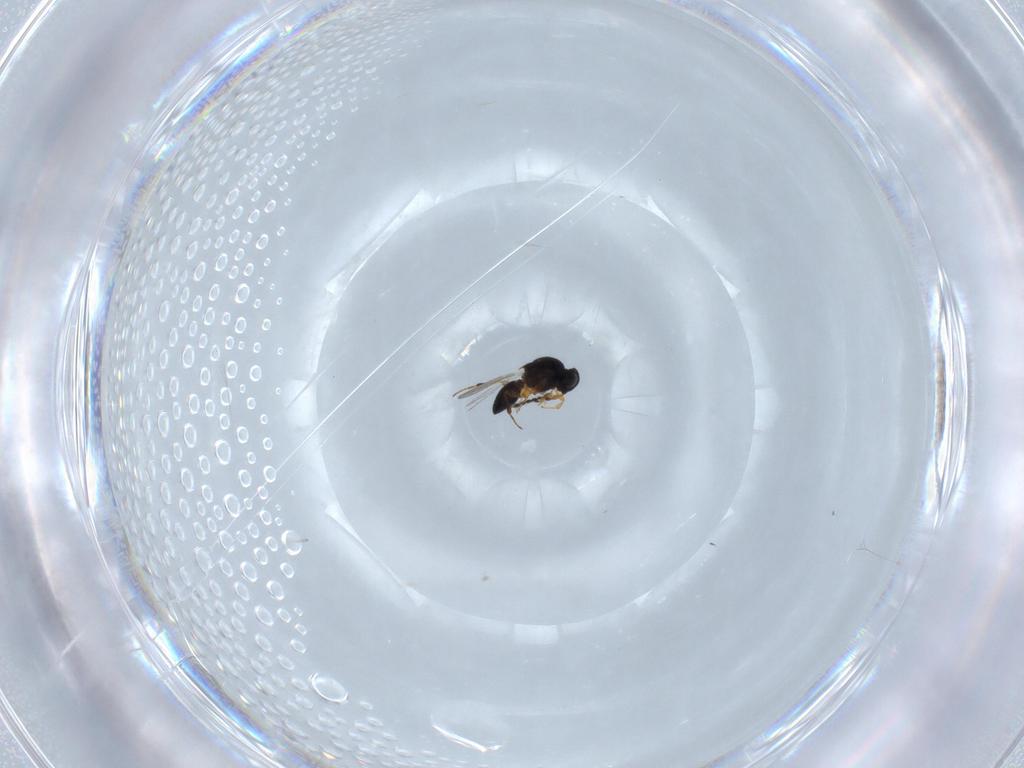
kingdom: Animalia
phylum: Arthropoda
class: Insecta
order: Hymenoptera
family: Platygastridae
